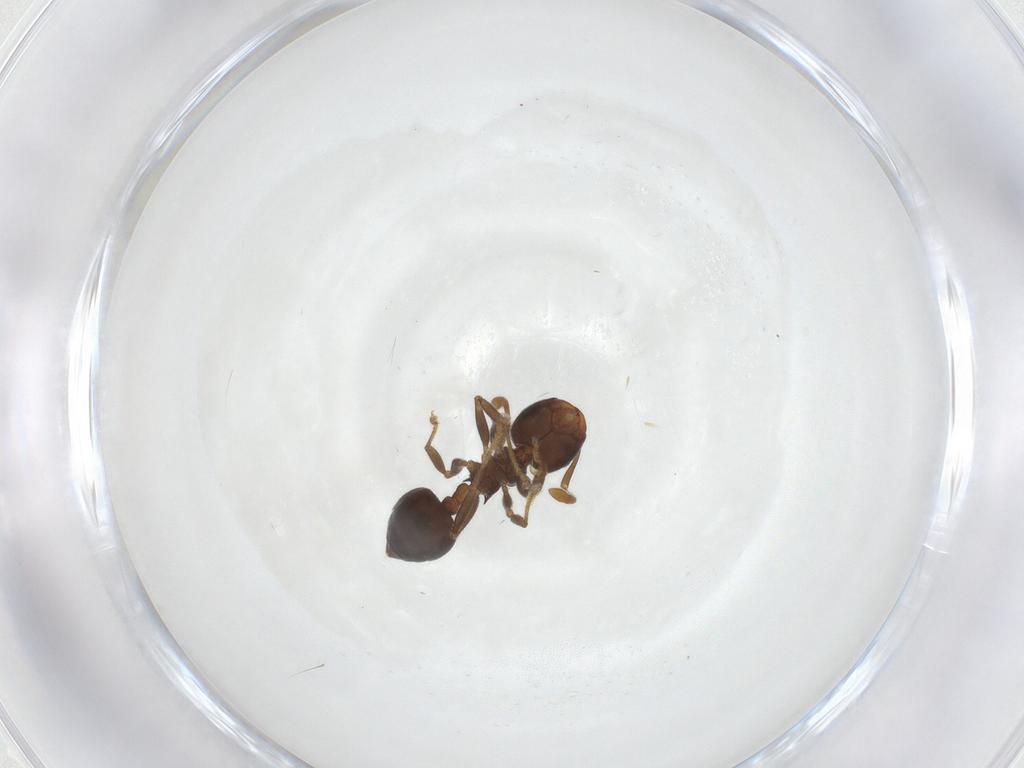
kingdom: Animalia
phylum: Arthropoda
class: Insecta
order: Hymenoptera
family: Formicidae
